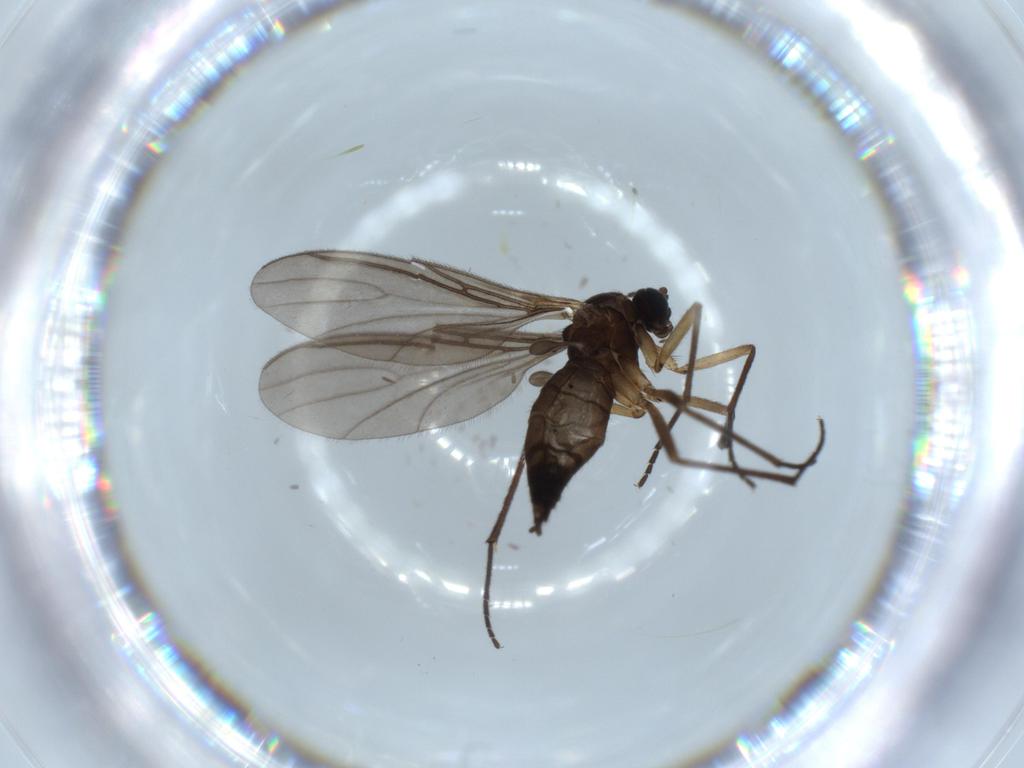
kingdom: Animalia
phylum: Arthropoda
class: Insecta
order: Diptera
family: Sciaridae
